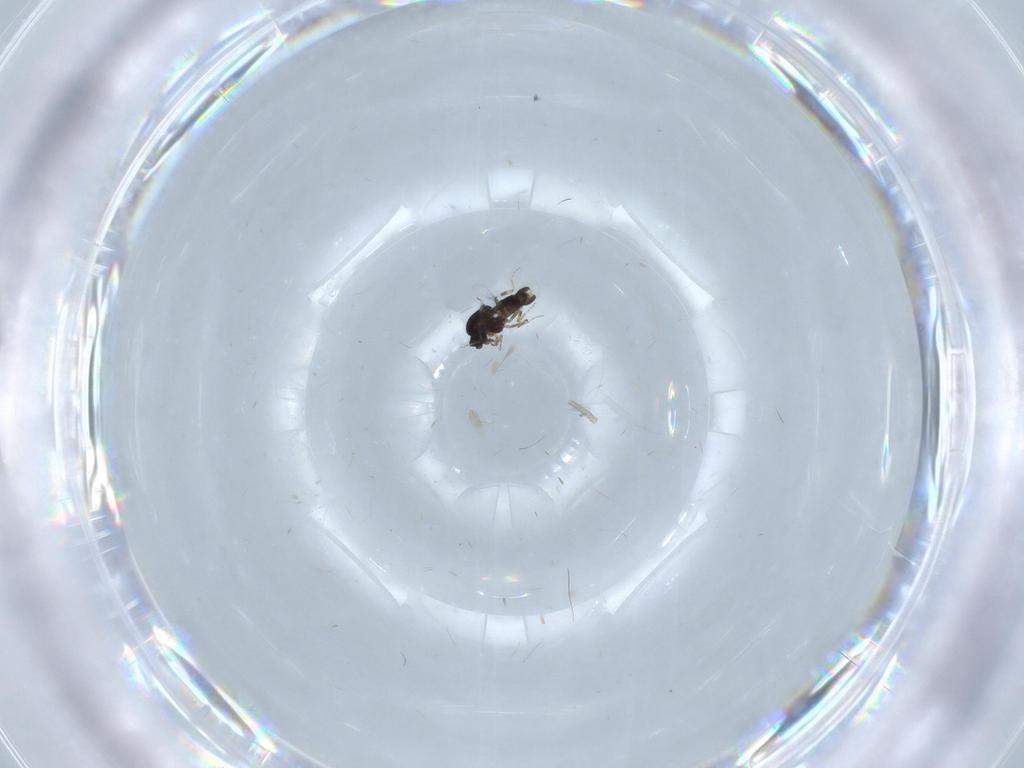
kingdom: Animalia
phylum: Arthropoda
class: Insecta
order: Diptera
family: Ceratopogonidae
